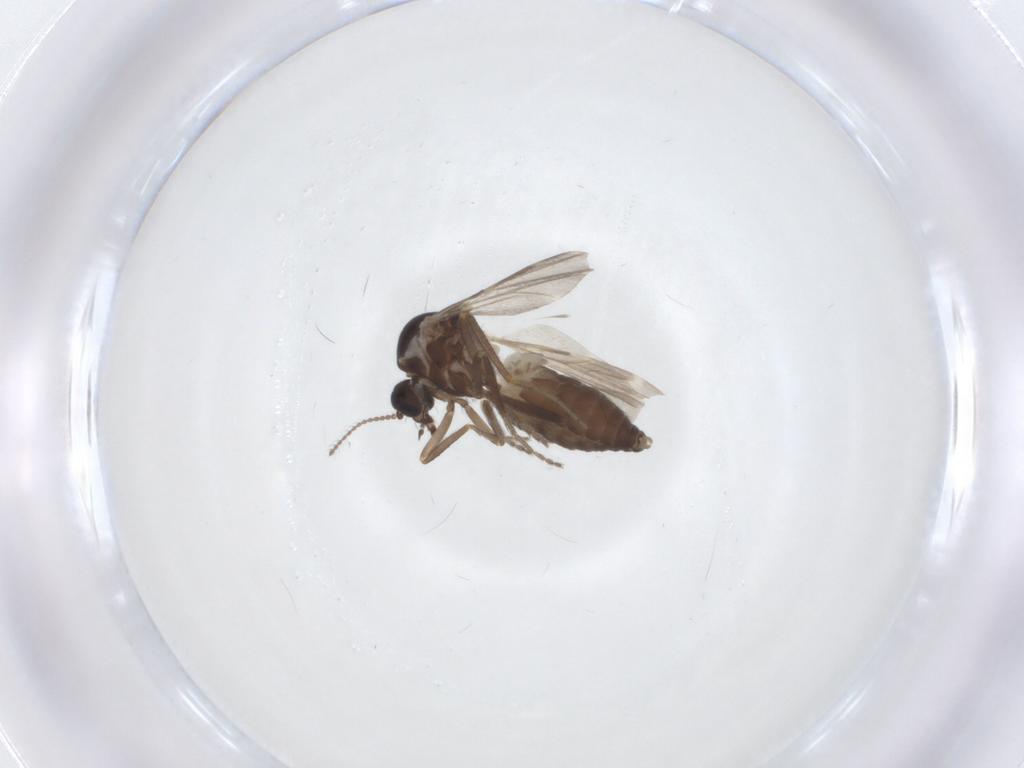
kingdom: Animalia
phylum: Arthropoda
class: Insecta
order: Diptera
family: Ceratopogonidae
